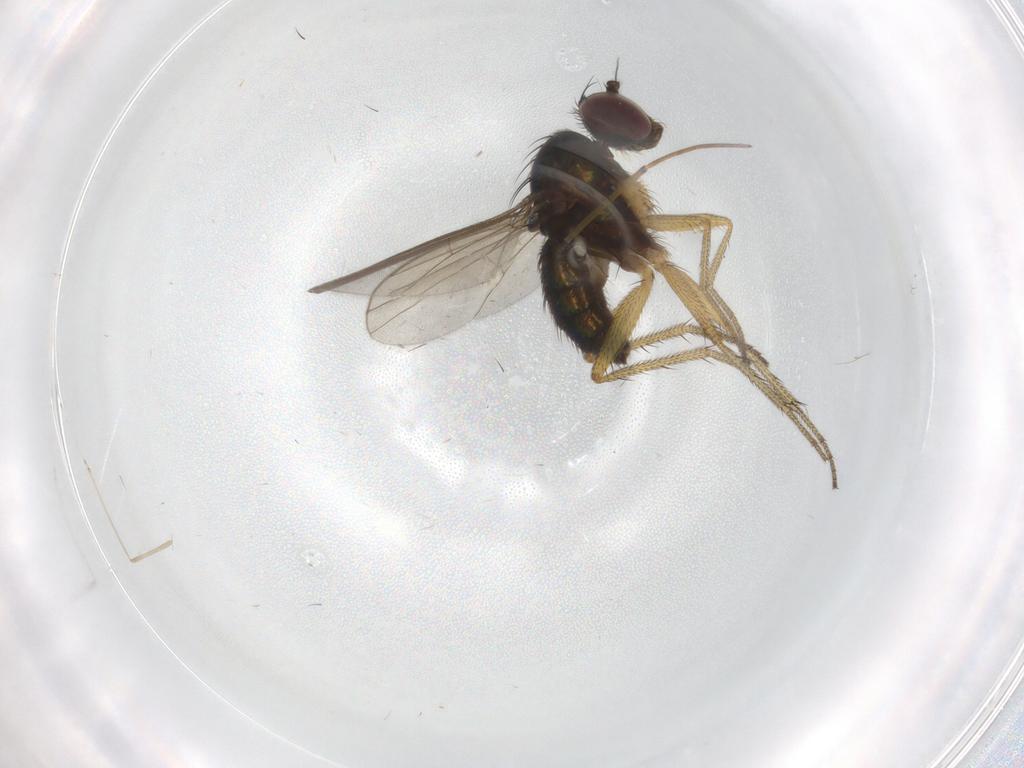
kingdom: Animalia
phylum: Arthropoda
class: Insecta
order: Diptera
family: Dolichopodidae
